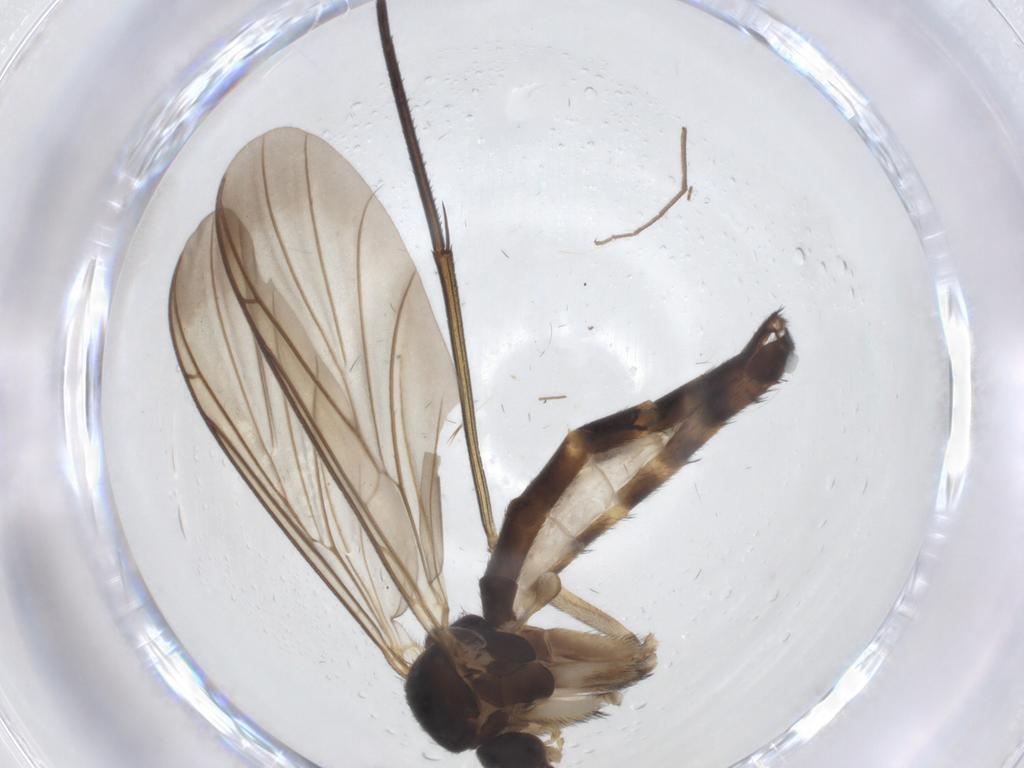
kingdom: Animalia
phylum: Arthropoda
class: Insecta
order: Diptera
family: Keroplatidae
